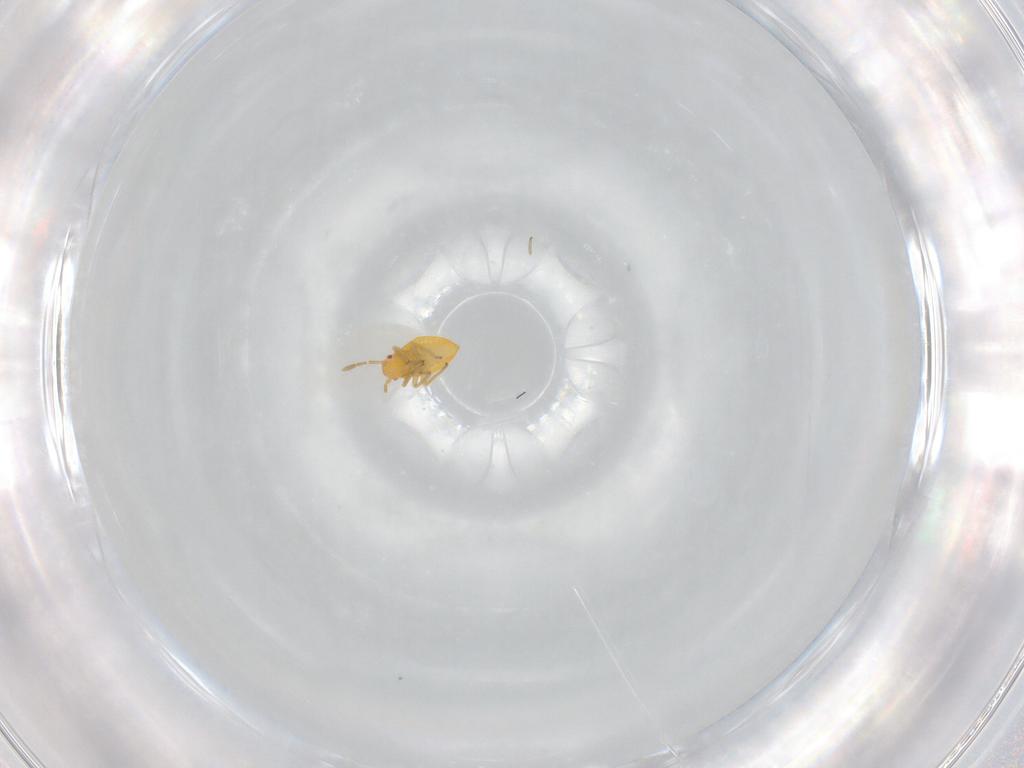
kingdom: Animalia
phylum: Arthropoda
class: Insecta
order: Hemiptera
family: Miridae
